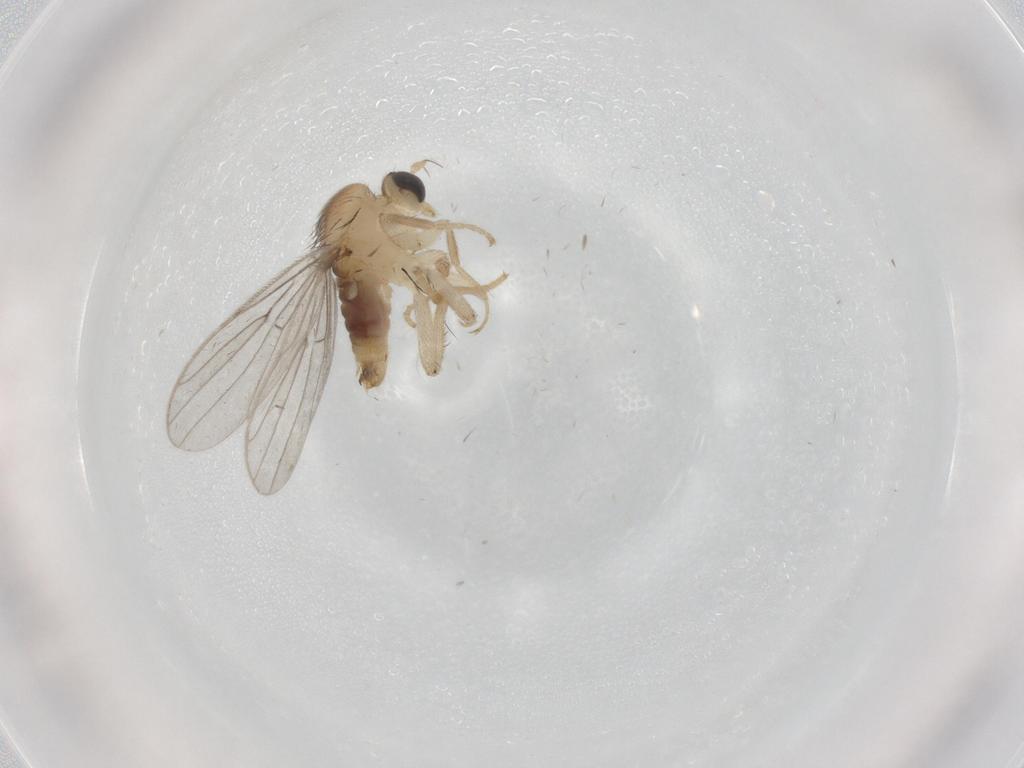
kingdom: Animalia
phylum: Arthropoda
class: Insecta
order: Diptera
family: Hybotidae
